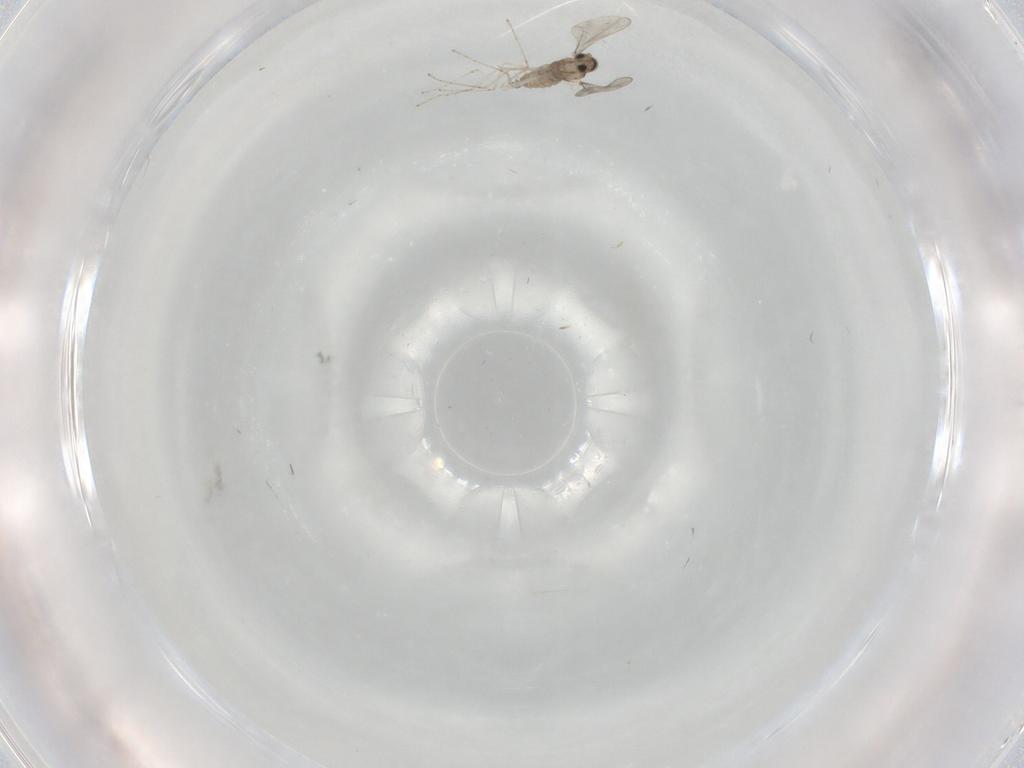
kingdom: Animalia
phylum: Arthropoda
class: Insecta
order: Diptera
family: Cecidomyiidae
